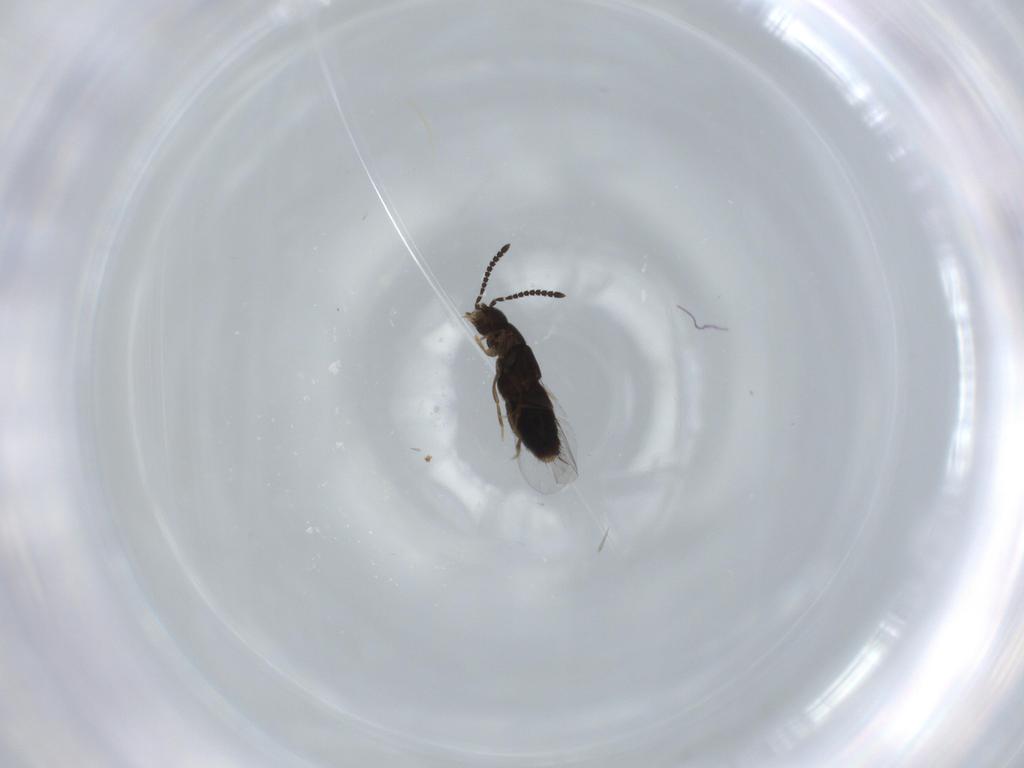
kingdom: Animalia
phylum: Arthropoda
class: Insecta
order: Coleoptera
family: Staphylinidae
